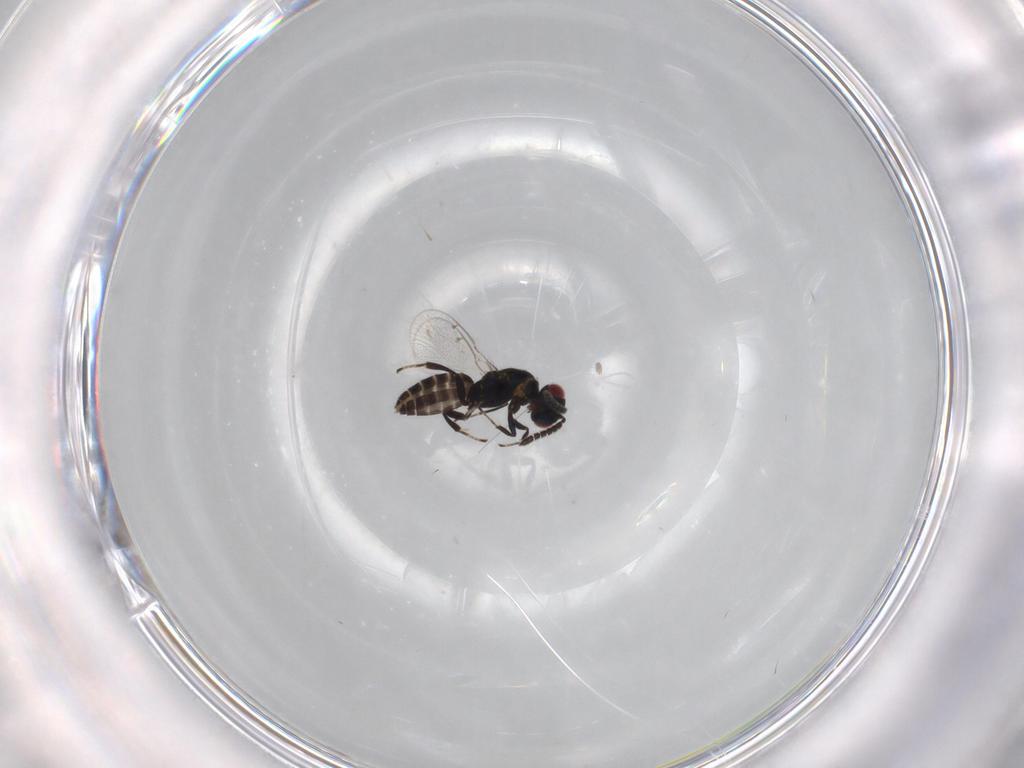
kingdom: Animalia
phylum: Arthropoda
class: Insecta
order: Hymenoptera
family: Pteromalidae
